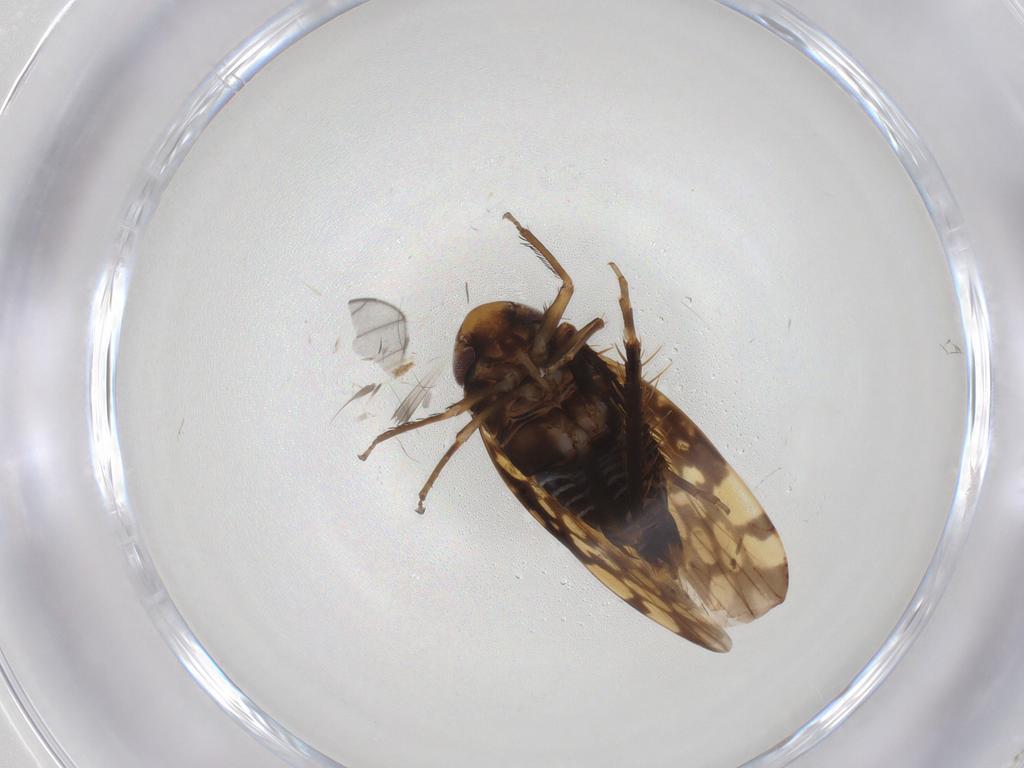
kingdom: Animalia
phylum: Arthropoda
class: Insecta
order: Hemiptera
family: Cicadellidae
